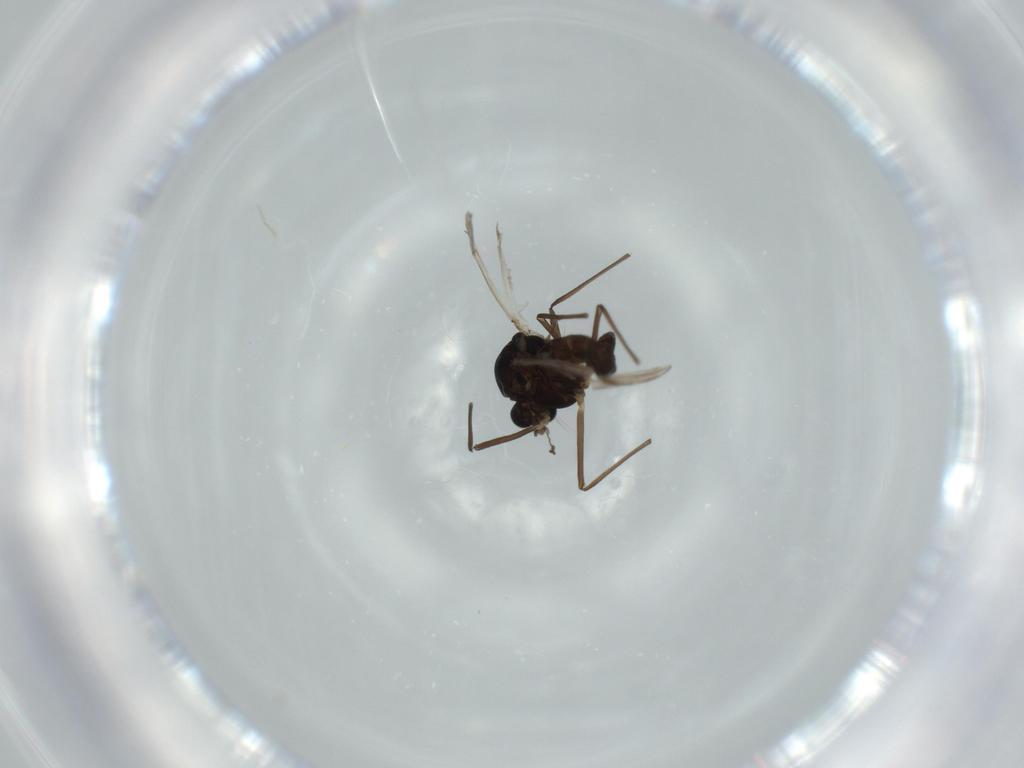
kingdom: Animalia
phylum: Arthropoda
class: Insecta
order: Diptera
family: Chironomidae
